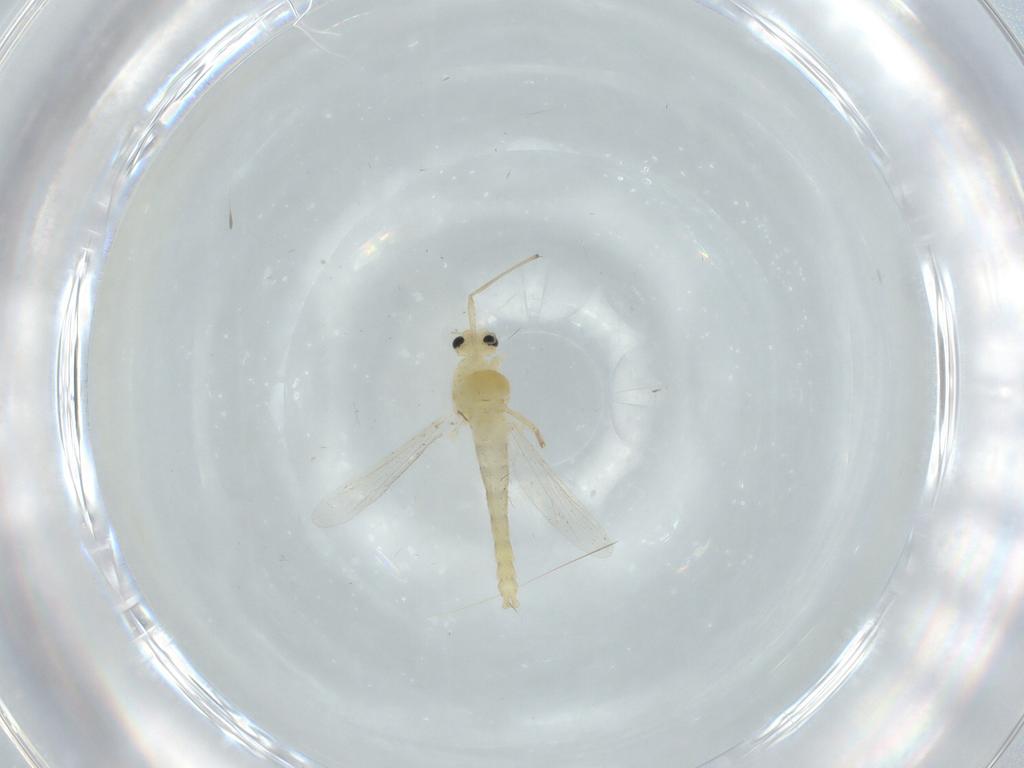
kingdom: Animalia
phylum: Arthropoda
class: Insecta
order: Diptera
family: Chironomidae
